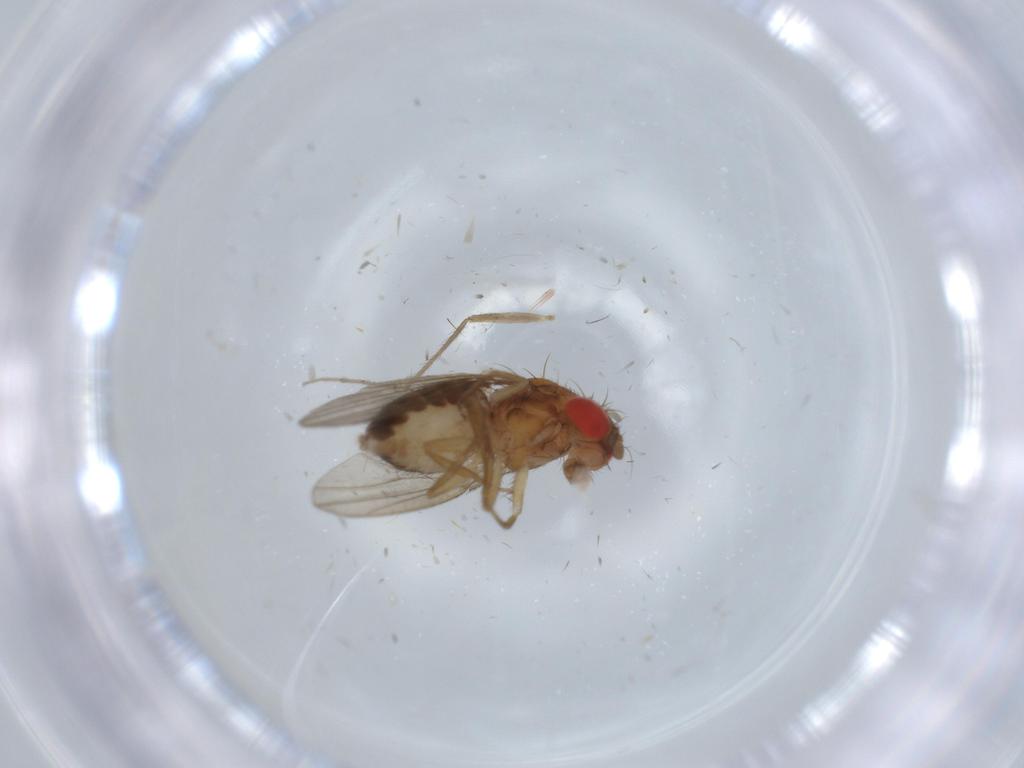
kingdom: Animalia
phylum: Arthropoda
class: Insecta
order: Diptera
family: Drosophilidae
